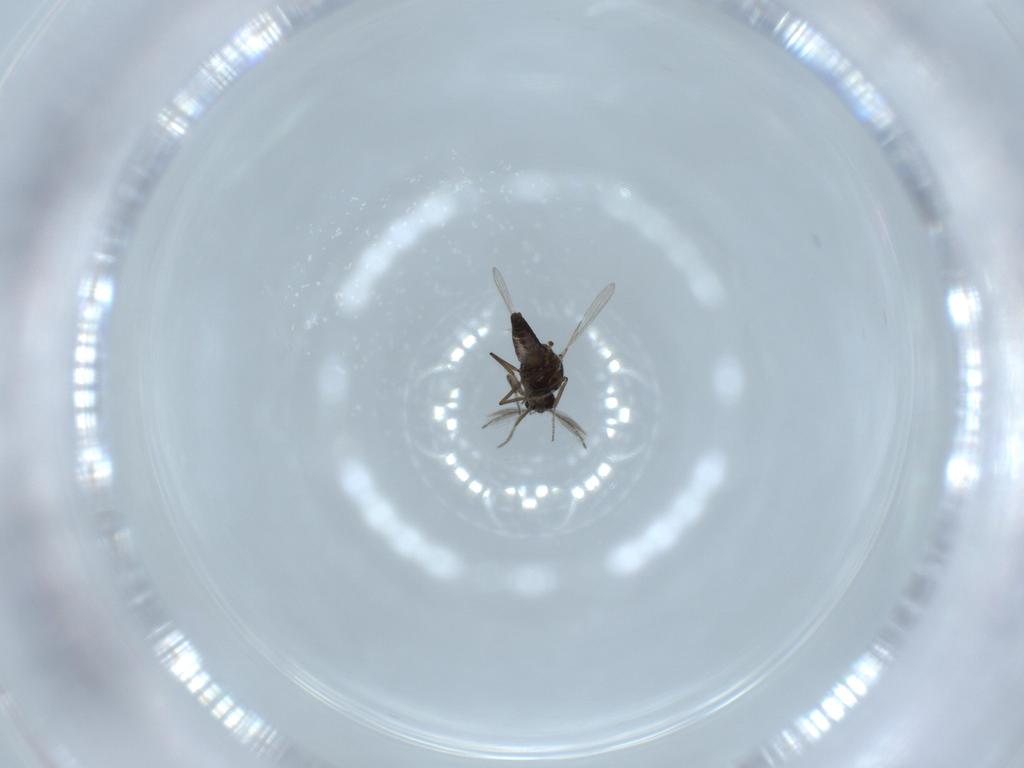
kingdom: Animalia
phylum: Arthropoda
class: Insecta
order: Diptera
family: Ceratopogonidae
